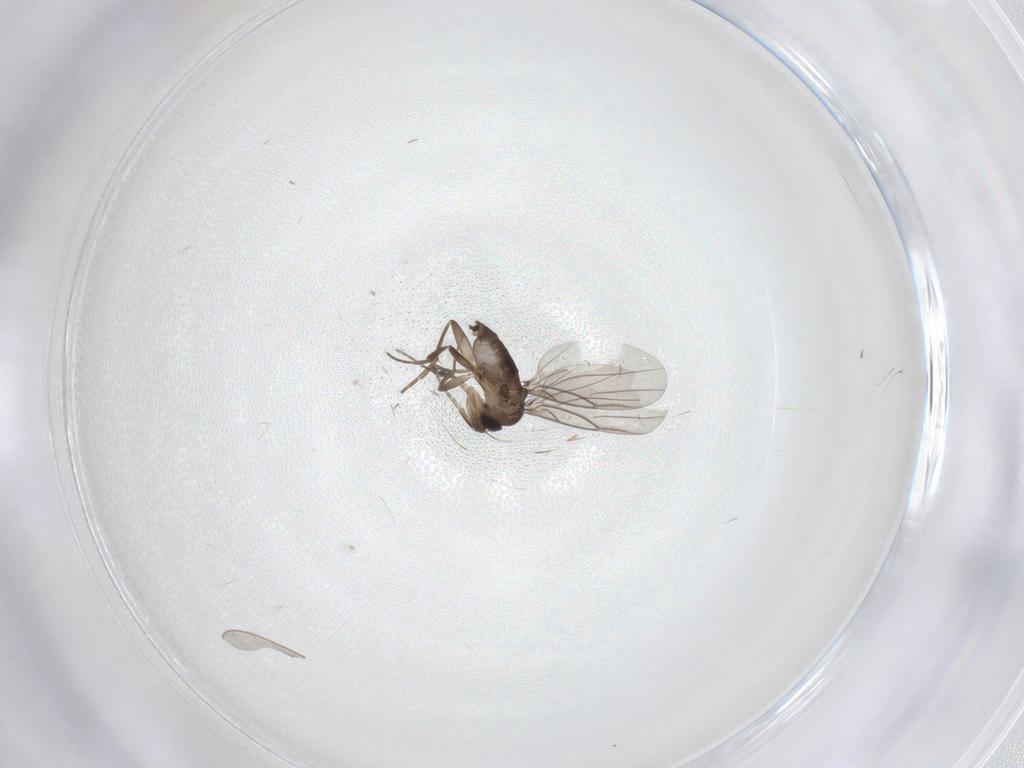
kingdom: Animalia
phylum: Arthropoda
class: Insecta
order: Diptera
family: Cecidomyiidae
